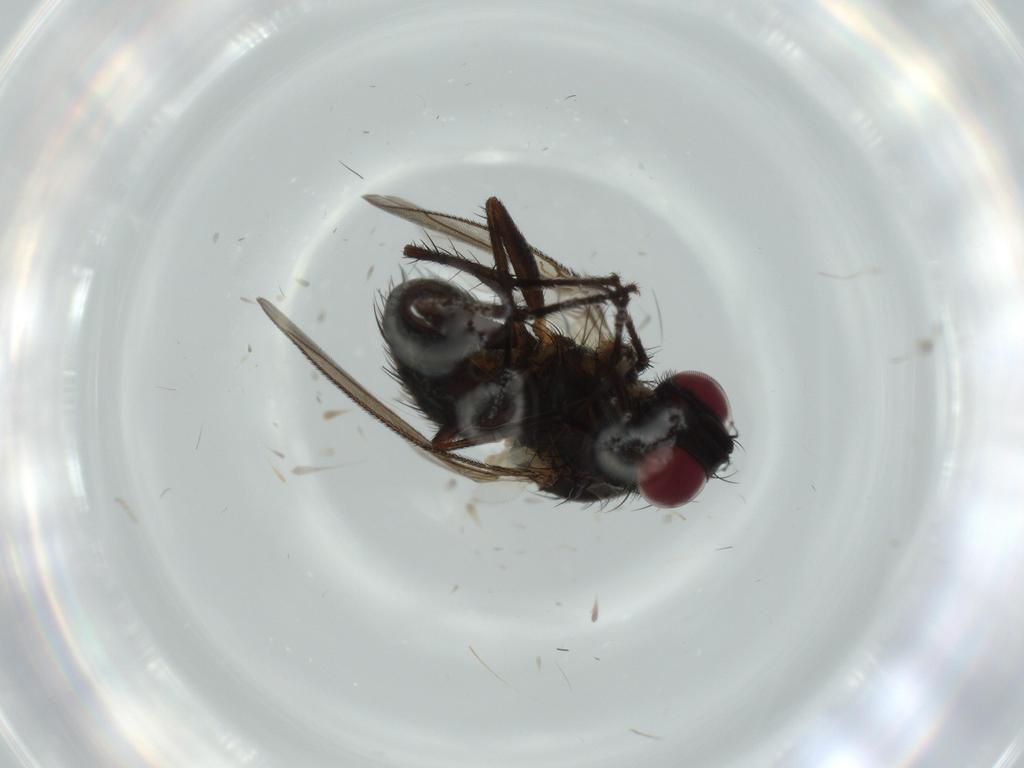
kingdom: Animalia
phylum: Arthropoda
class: Insecta
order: Diptera
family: Muscidae
